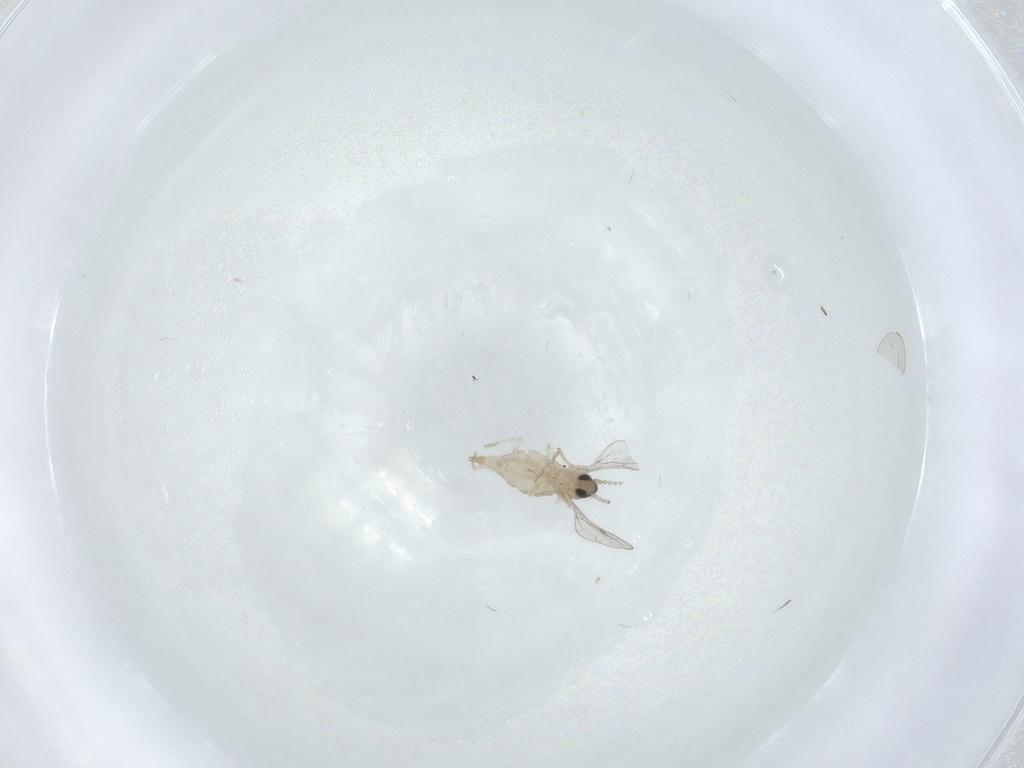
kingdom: Animalia
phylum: Arthropoda
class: Insecta
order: Diptera
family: Cecidomyiidae
